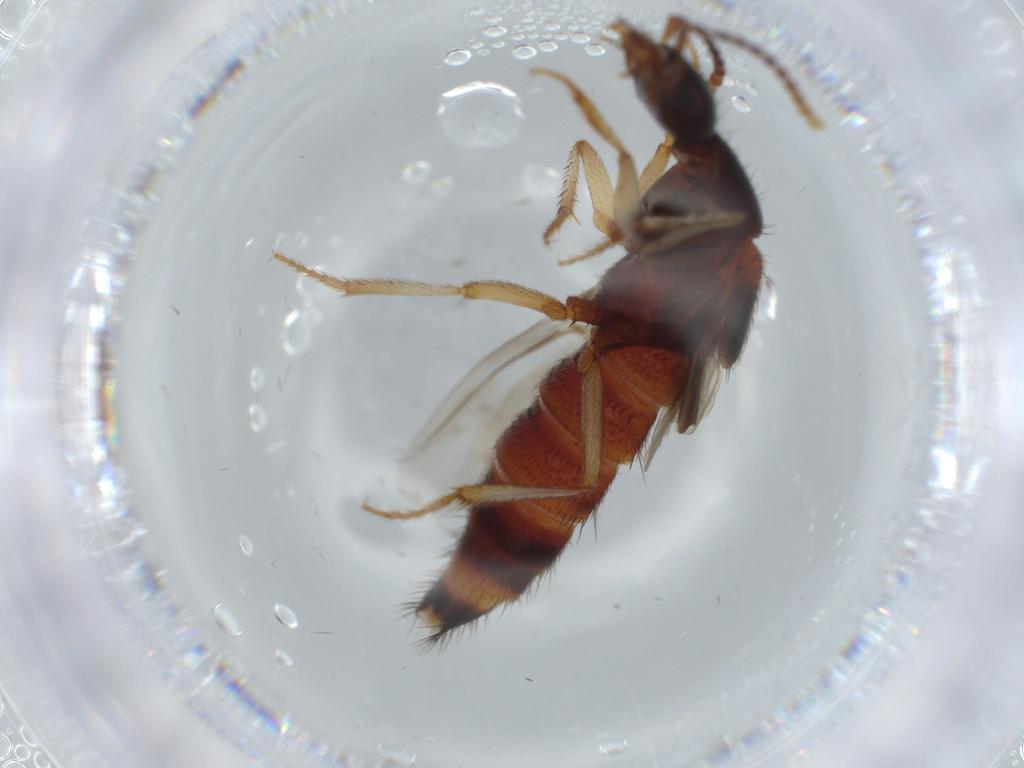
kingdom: Animalia
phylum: Arthropoda
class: Insecta
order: Coleoptera
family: Staphylinidae
